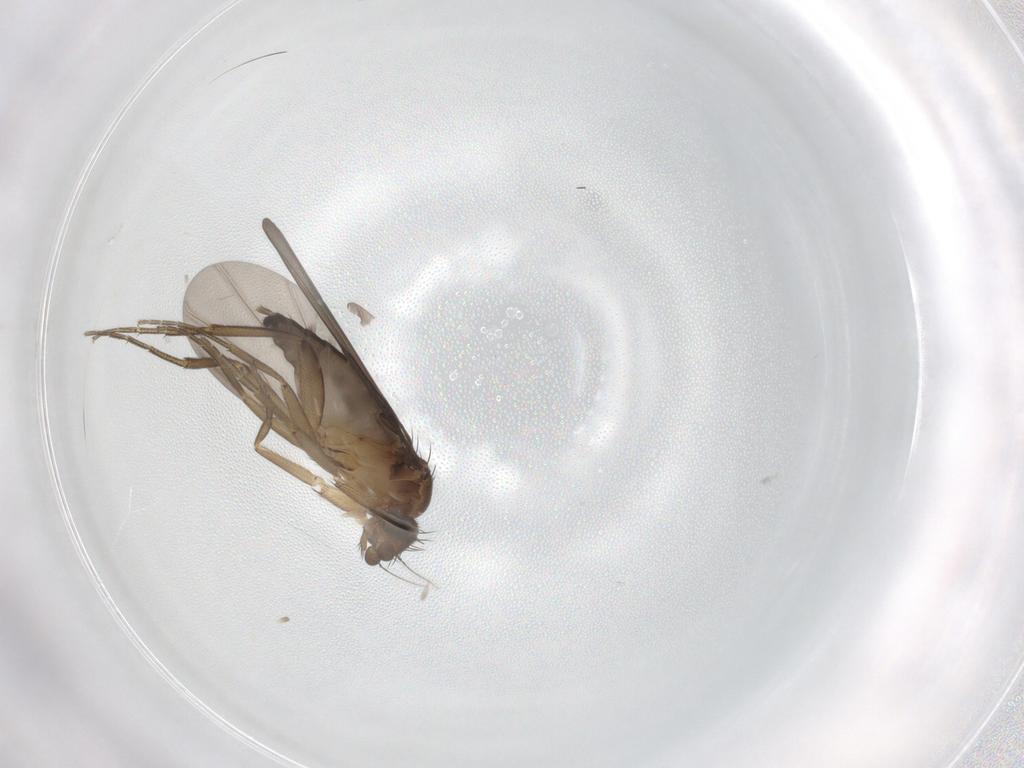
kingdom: Animalia
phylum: Arthropoda
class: Insecta
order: Diptera
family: Phoridae
